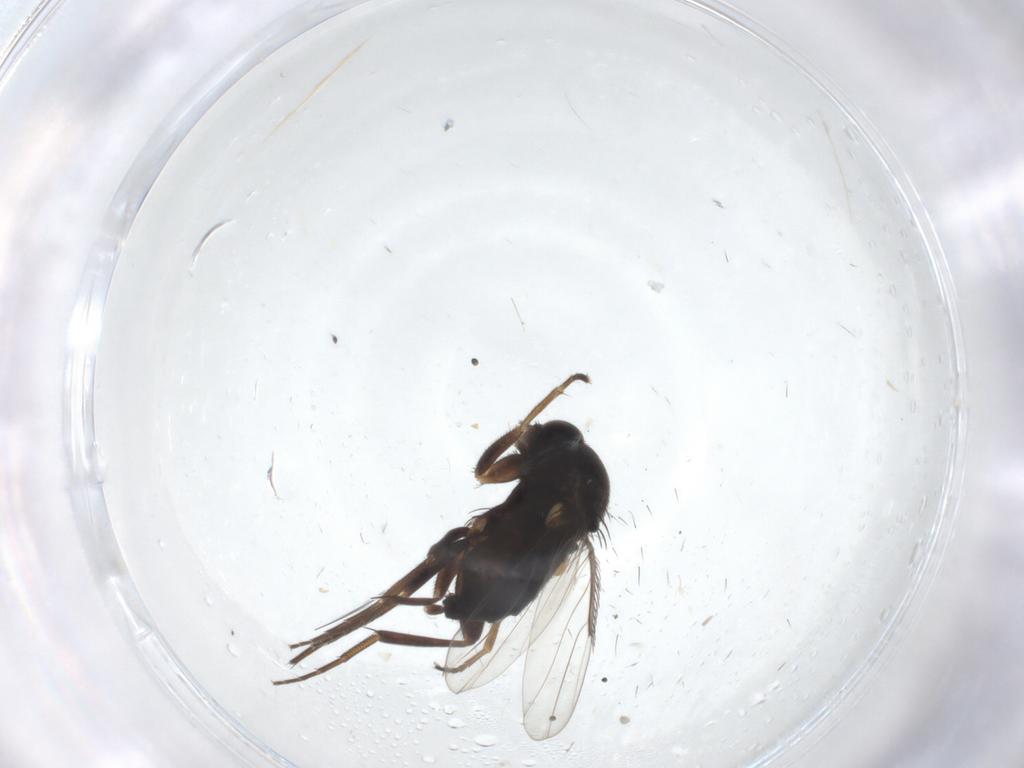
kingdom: Animalia
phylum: Arthropoda
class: Insecta
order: Diptera
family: Phoridae
